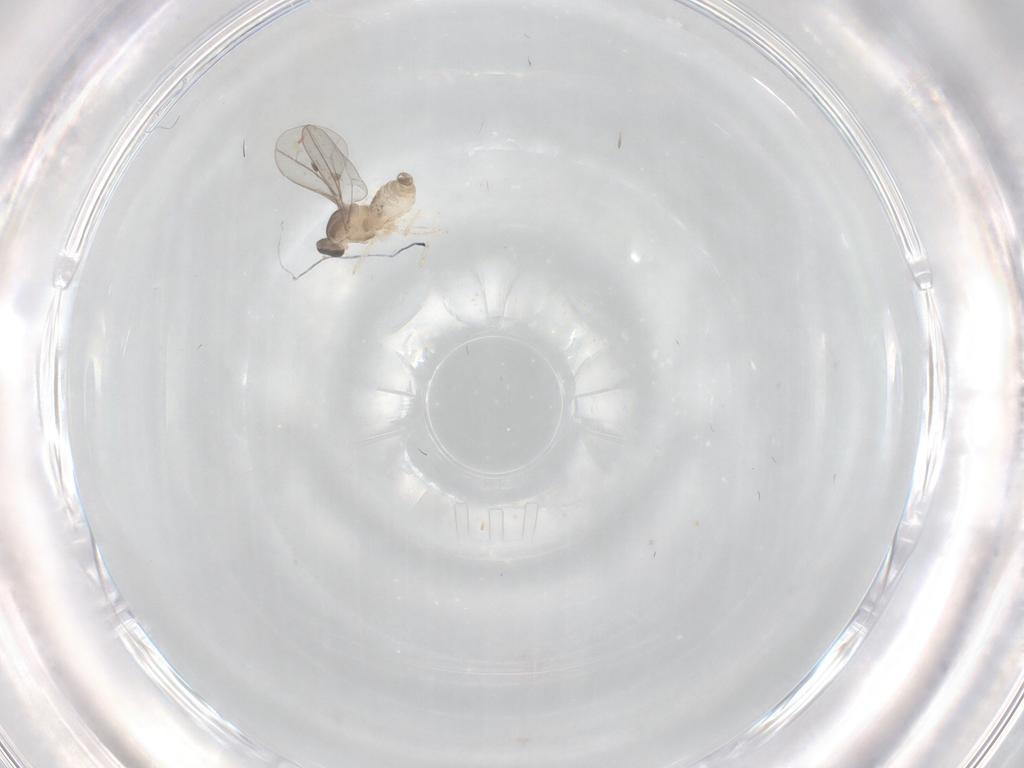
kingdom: Animalia
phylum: Arthropoda
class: Insecta
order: Diptera
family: Cecidomyiidae
